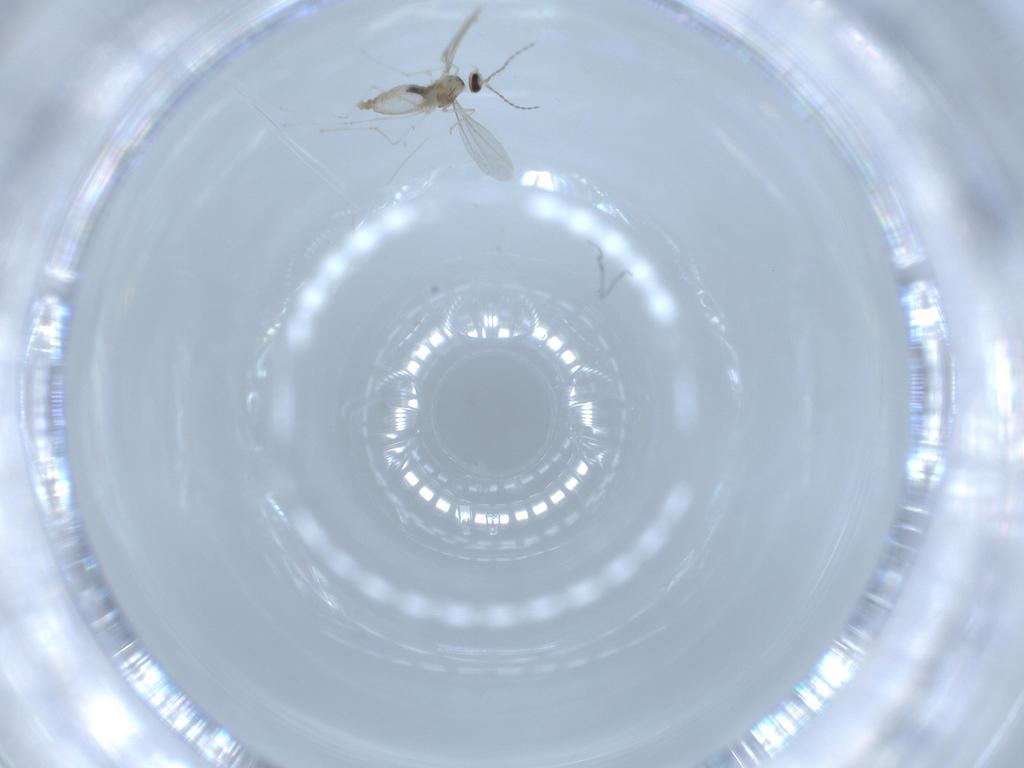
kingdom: Animalia
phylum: Arthropoda
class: Insecta
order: Diptera
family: Cecidomyiidae
